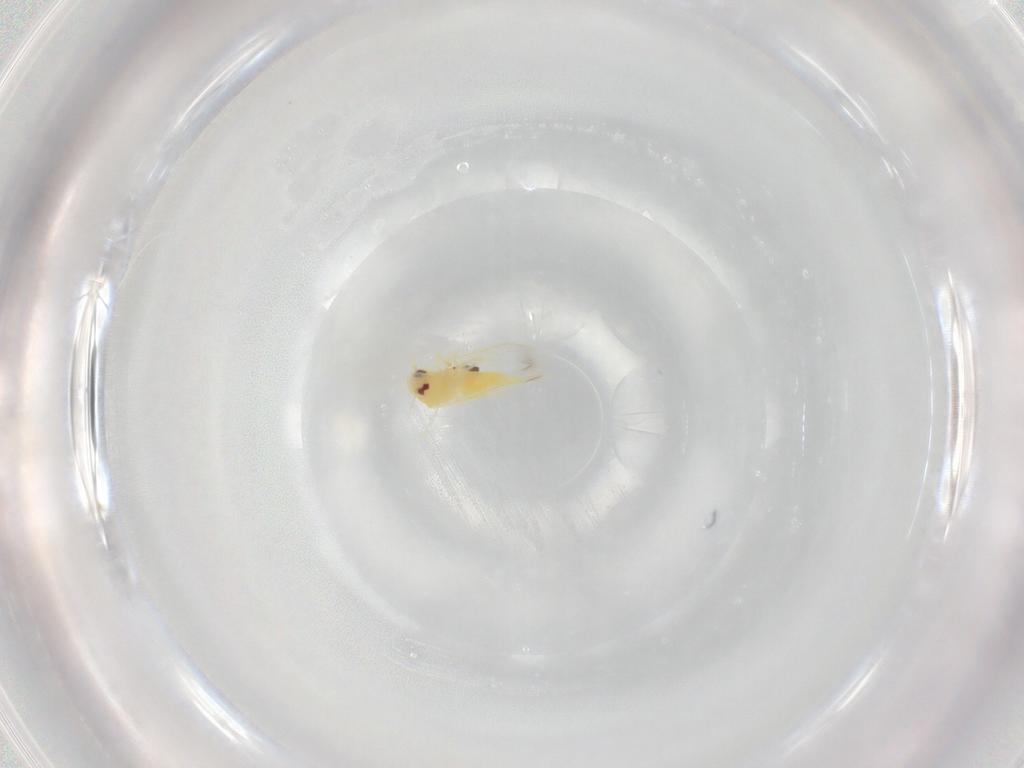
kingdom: Animalia
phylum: Arthropoda
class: Insecta
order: Hemiptera
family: Aleyrodidae
